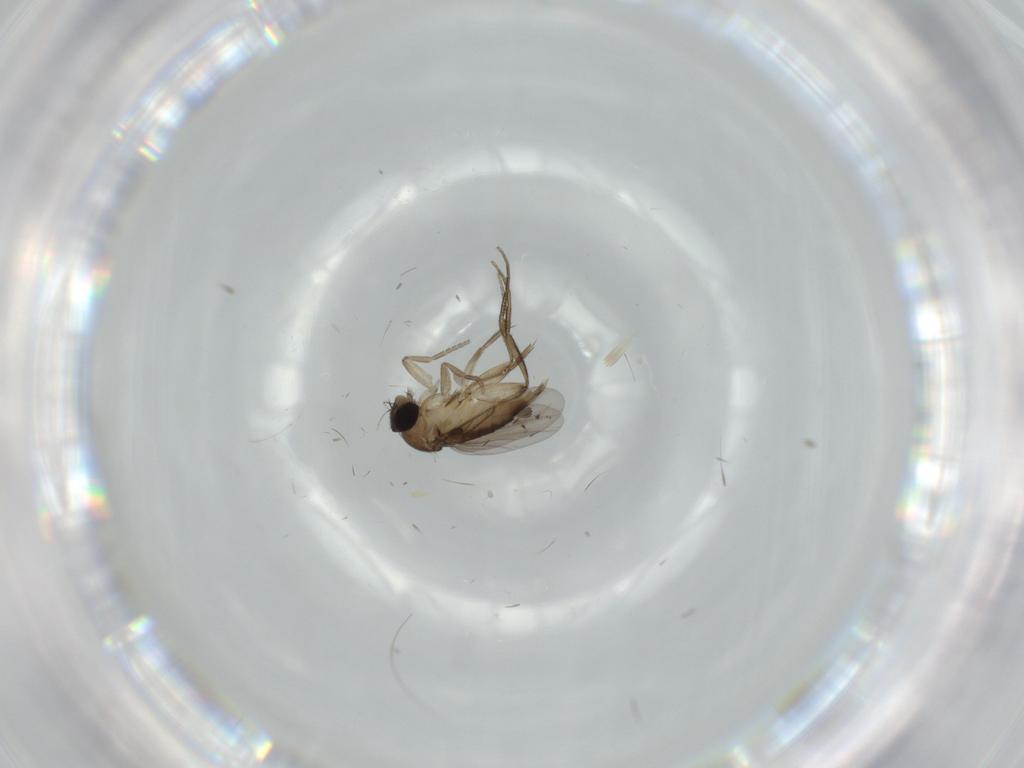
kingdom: Animalia
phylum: Arthropoda
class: Insecta
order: Diptera
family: Phoridae
